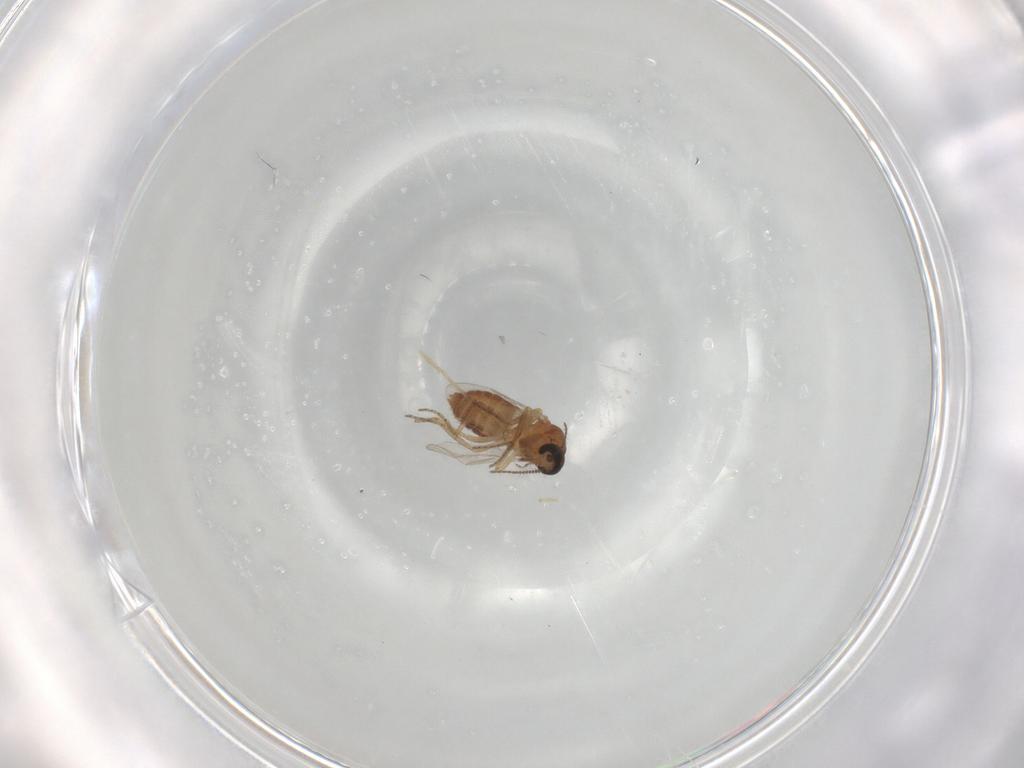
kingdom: Animalia
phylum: Arthropoda
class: Insecta
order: Diptera
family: Ceratopogonidae
